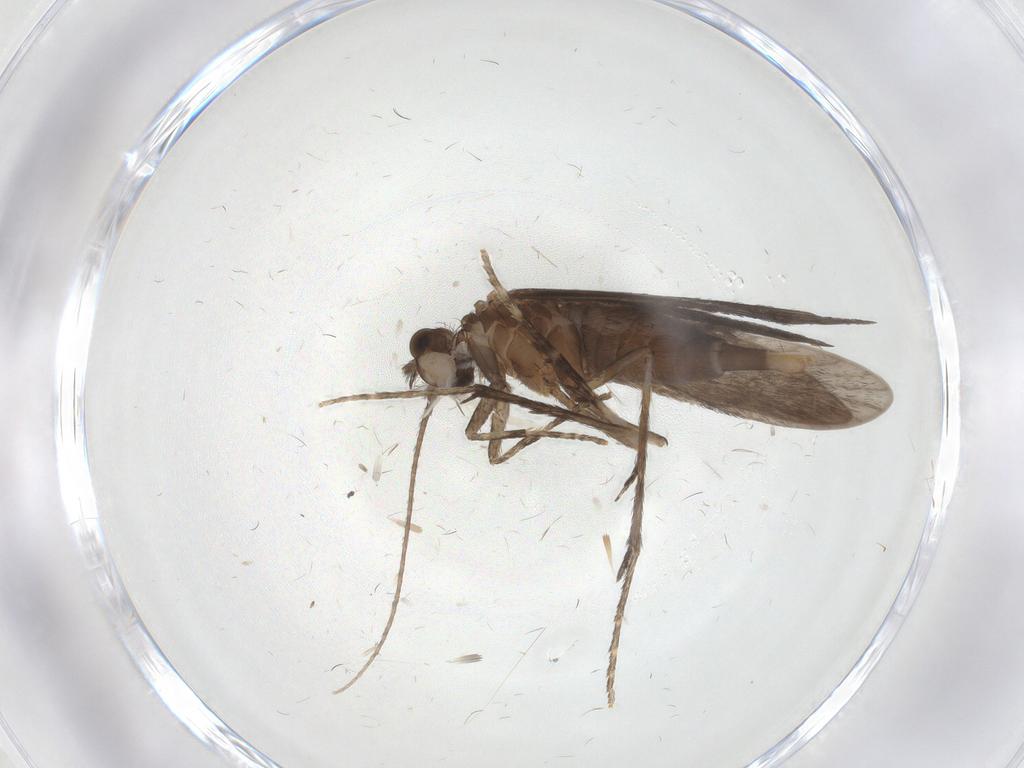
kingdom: Animalia
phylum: Arthropoda
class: Insecta
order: Trichoptera
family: Xiphocentronidae
